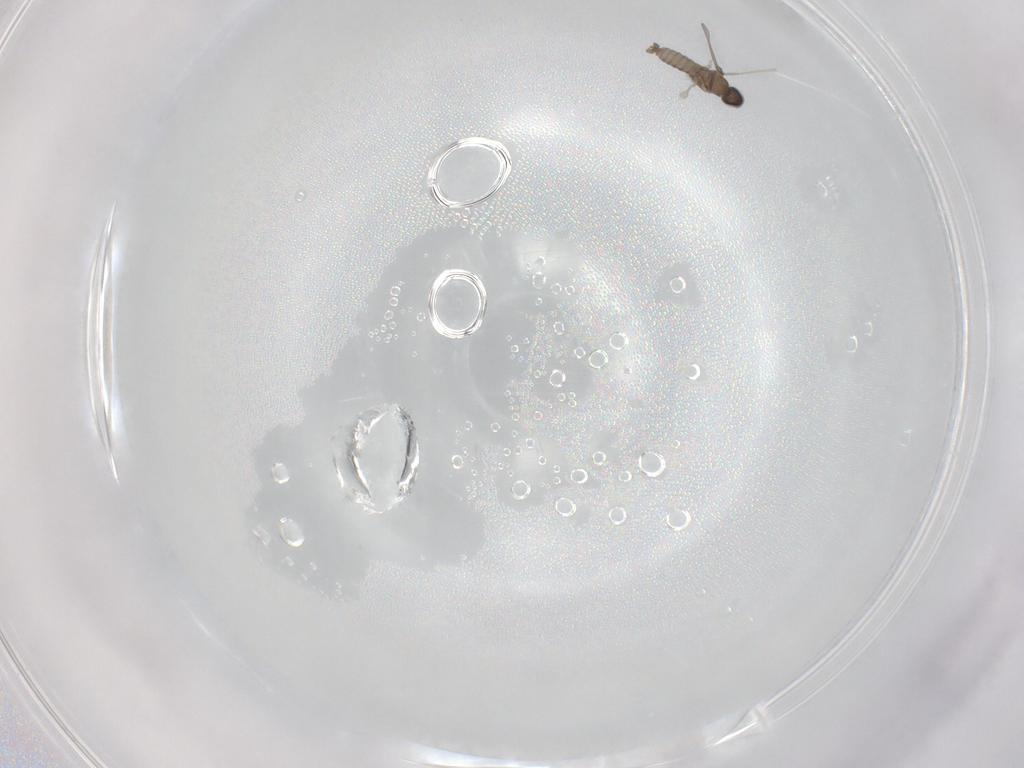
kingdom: Animalia
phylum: Arthropoda
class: Insecta
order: Diptera
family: Cecidomyiidae
